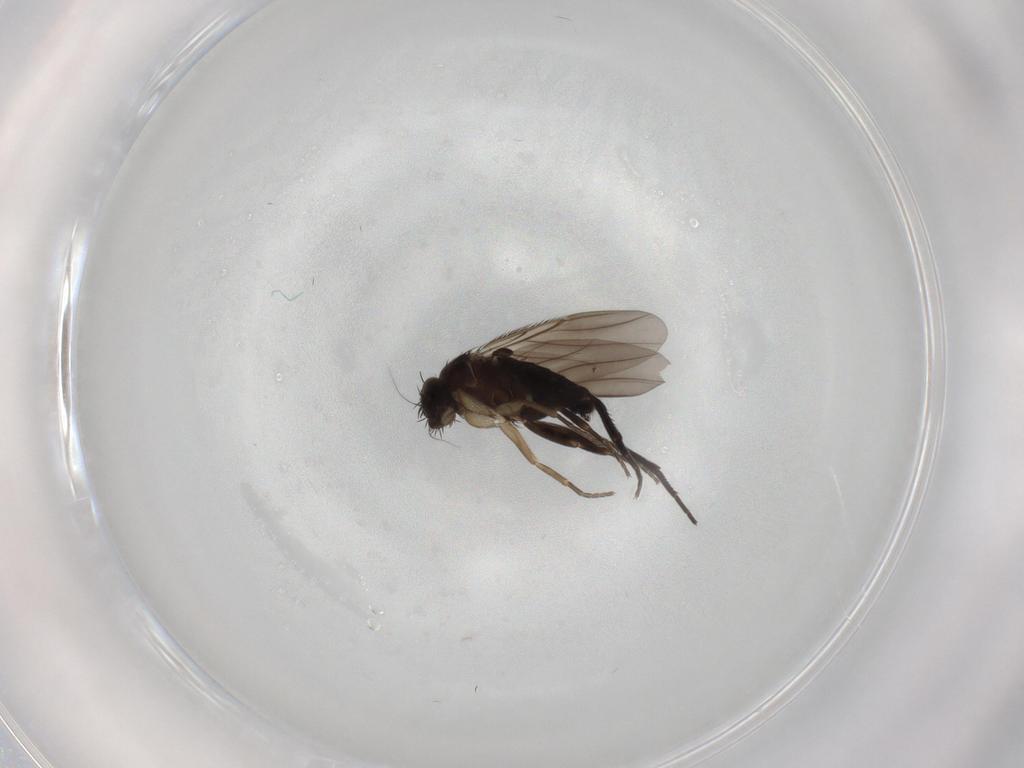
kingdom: Animalia
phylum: Arthropoda
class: Insecta
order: Diptera
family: Phoridae
